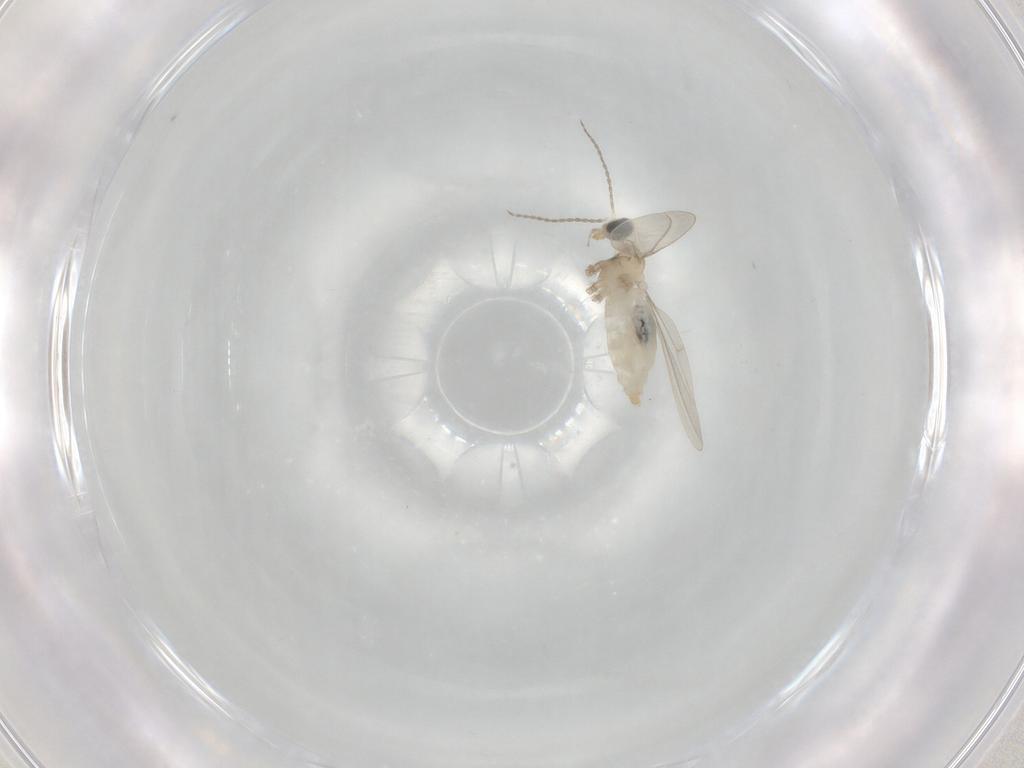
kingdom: Animalia
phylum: Arthropoda
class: Insecta
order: Diptera
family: Cecidomyiidae
